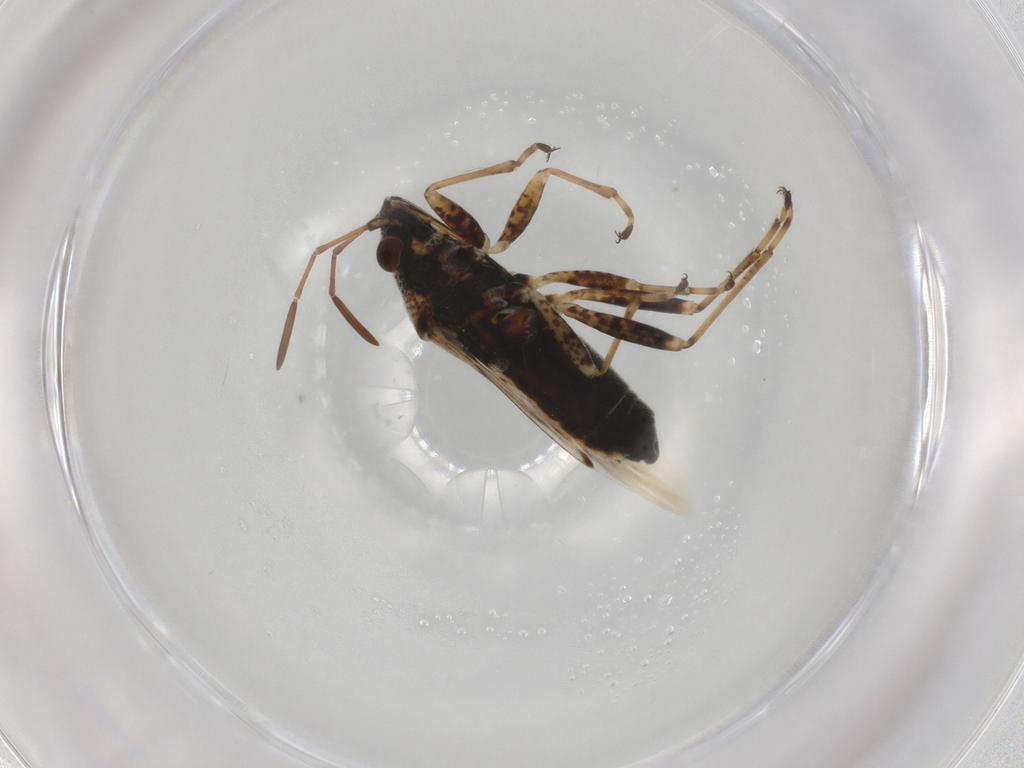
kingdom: Animalia
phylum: Arthropoda
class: Insecta
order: Hemiptera
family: Lygaeidae
